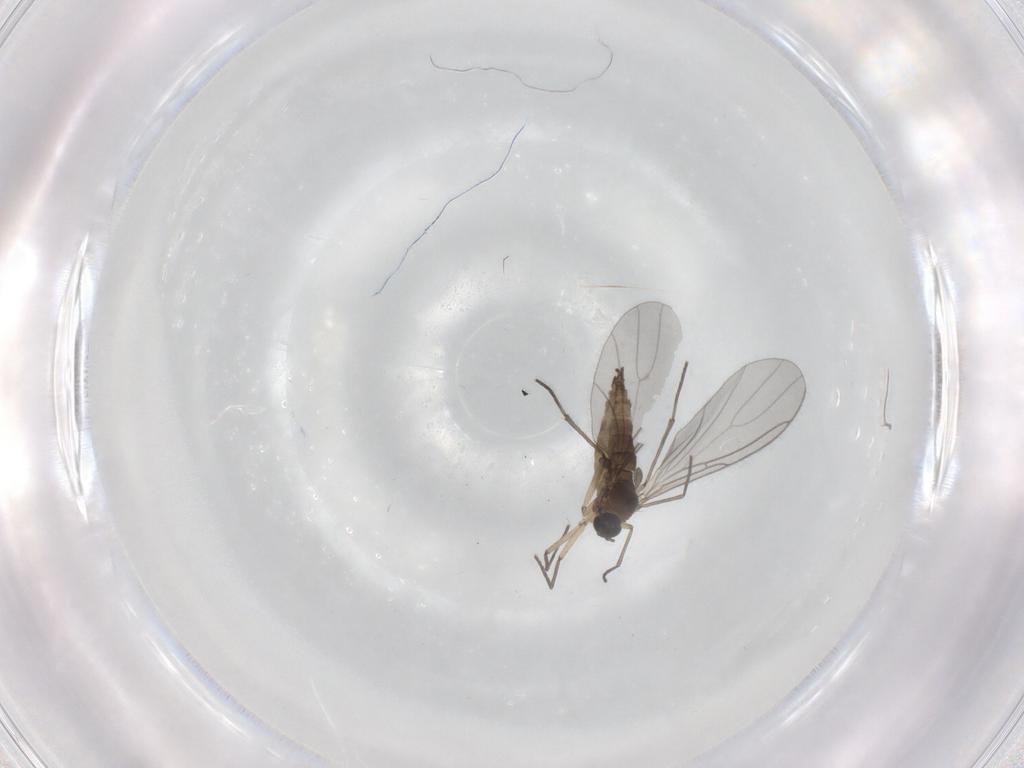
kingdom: Animalia
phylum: Arthropoda
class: Insecta
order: Diptera
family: Sciaridae
